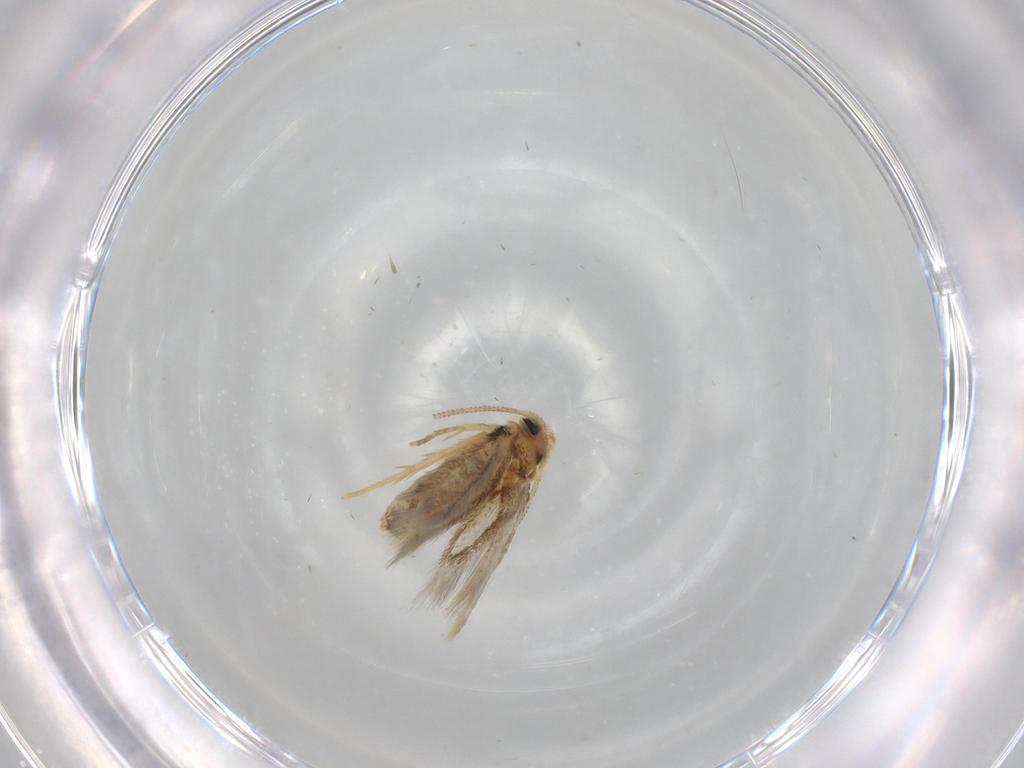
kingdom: Animalia
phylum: Arthropoda
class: Insecta
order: Lepidoptera
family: Nepticulidae
